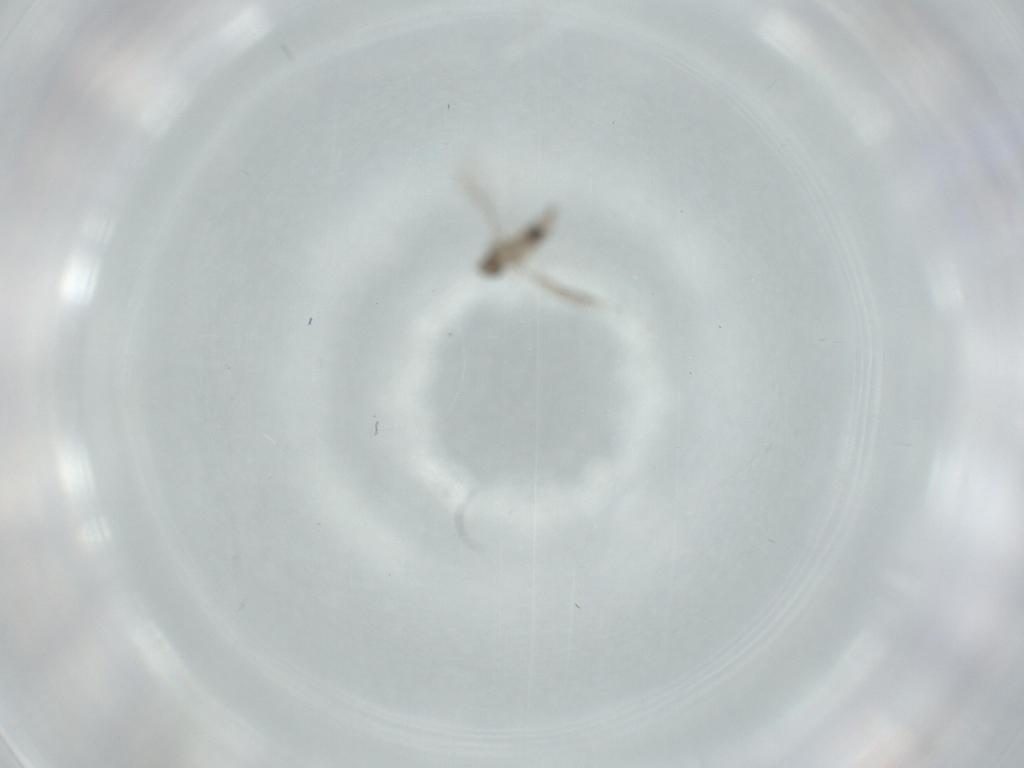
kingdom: Animalia
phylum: Arthropoda
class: Insecta
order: Diptera
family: Cecidomyiidae
